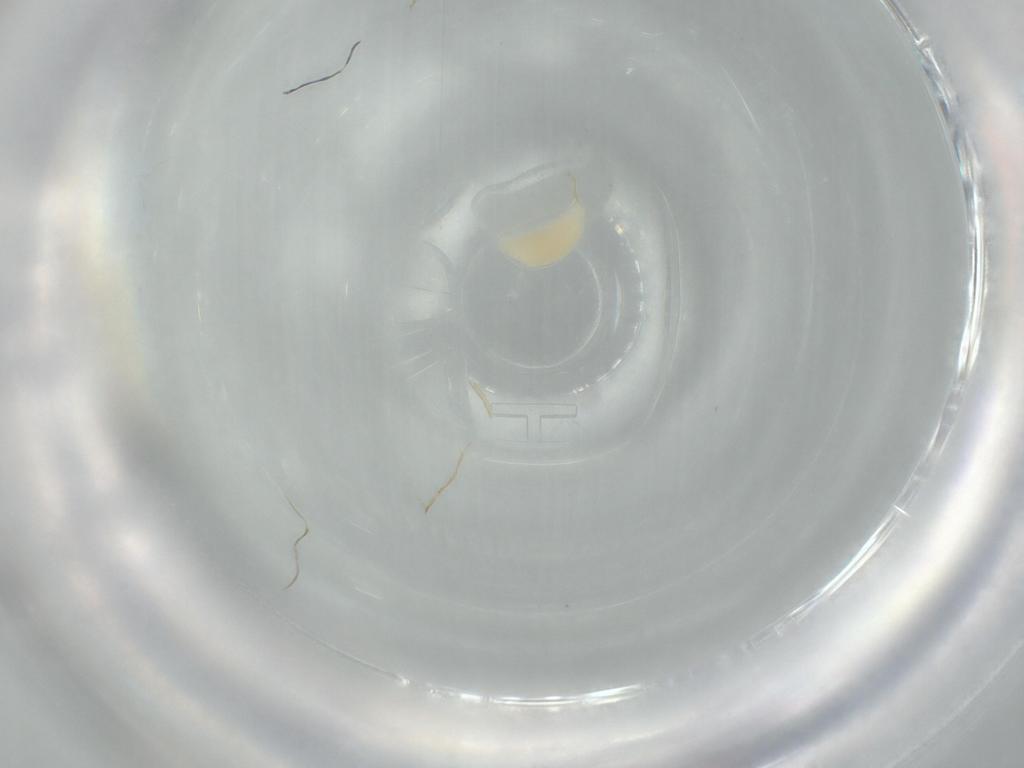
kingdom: Animalia
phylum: Arthropoda
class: Insecta
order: Hymenoptera
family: Ichneumonidae
